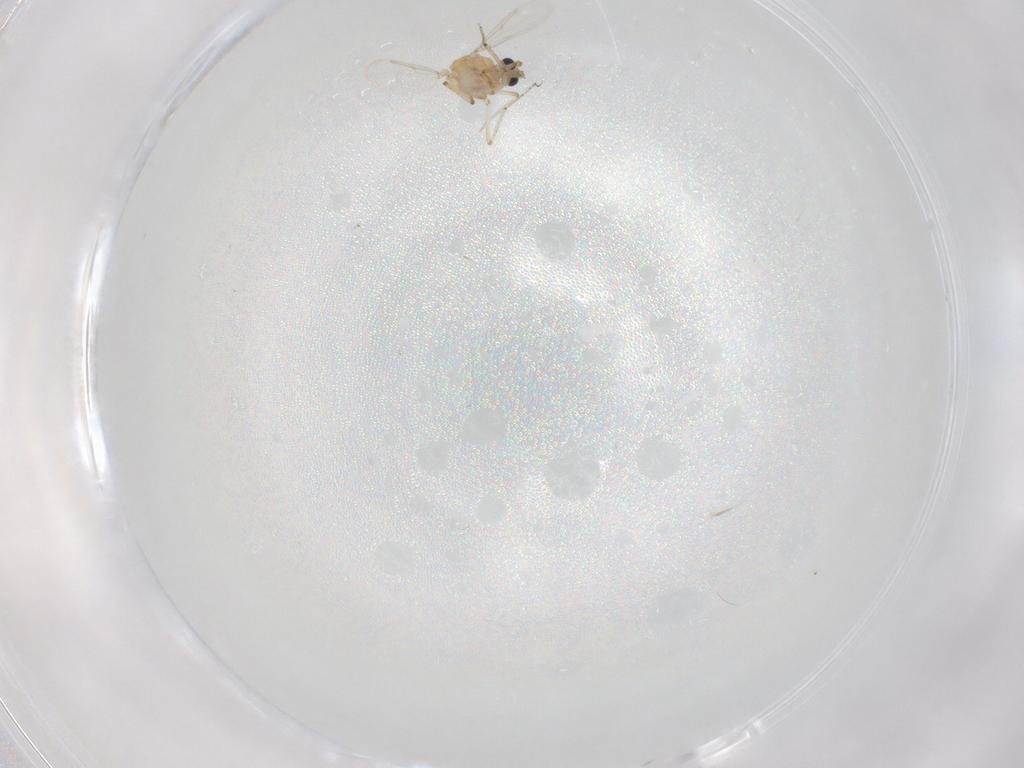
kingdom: Animalia
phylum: Arthropoda
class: Insecta
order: Diptera
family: Ceratopogonidae
